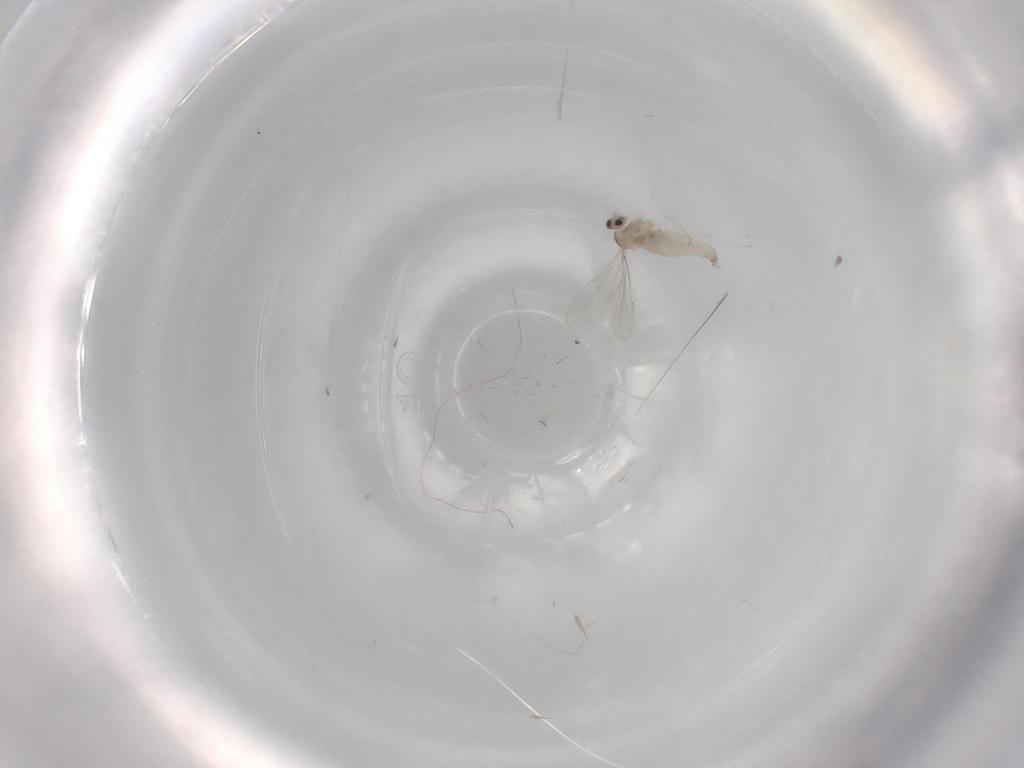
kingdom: Animalia
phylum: Arthropoda
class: Insecta
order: Diptera
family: Cecidomyiidae
